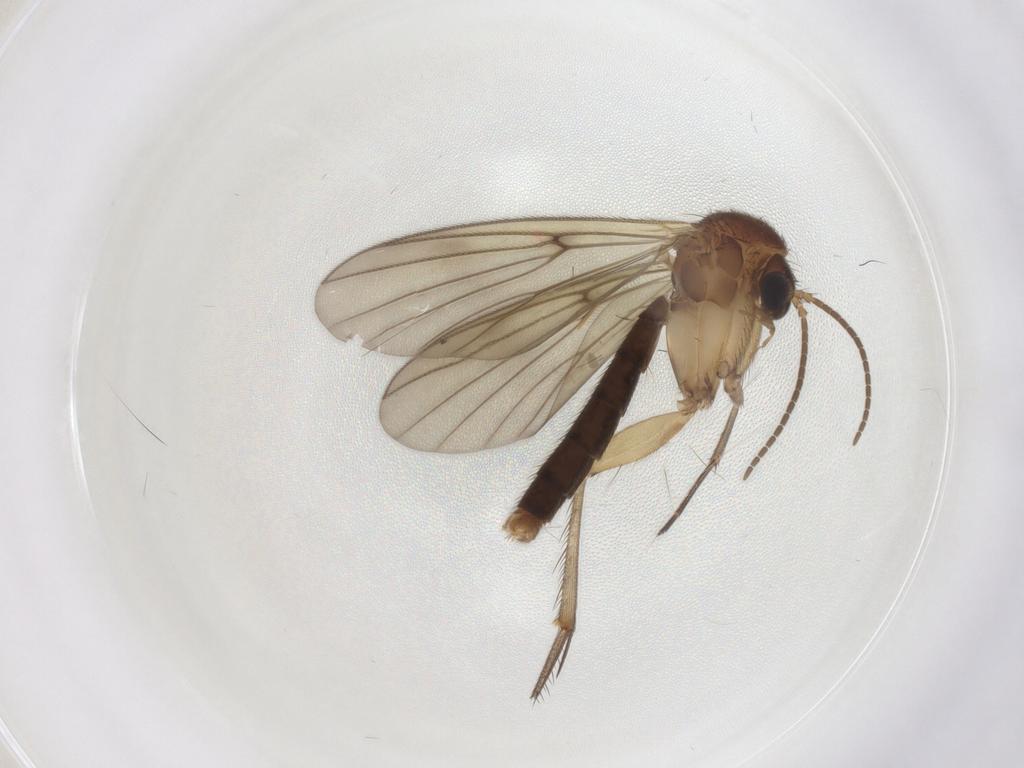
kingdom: Animalia
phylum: Arthropoda
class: Insecta
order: Diptera
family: Mycetophilidae
